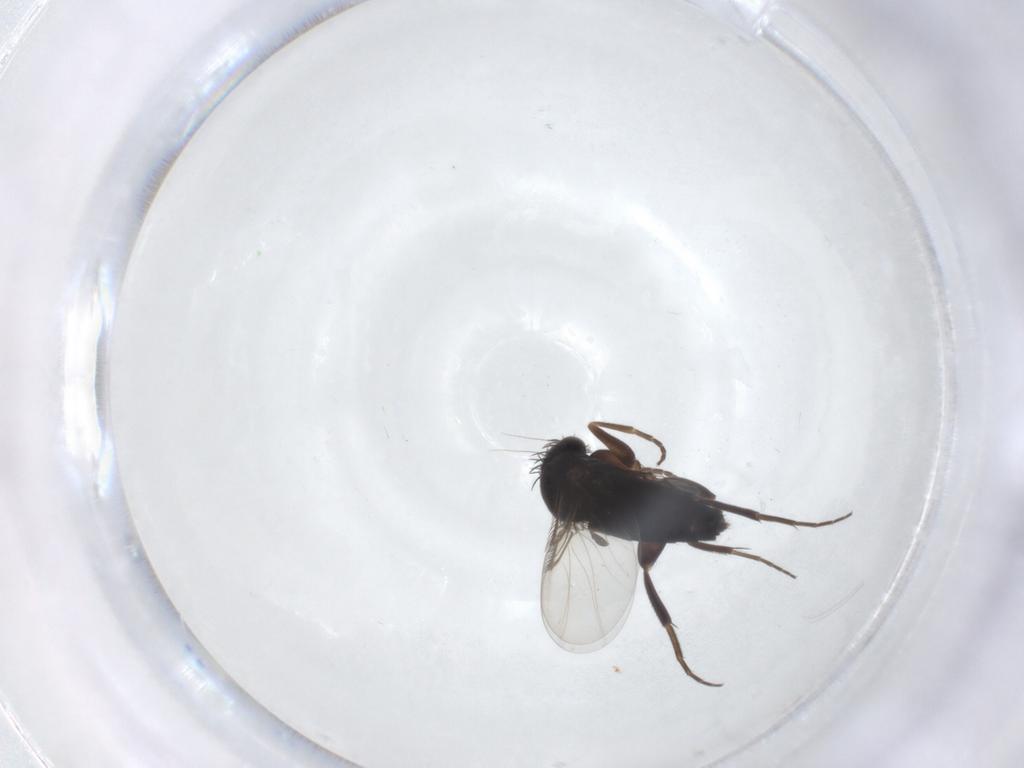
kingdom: Animalia
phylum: Arthropoda
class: Insecta
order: Diptera
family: Phoridae
